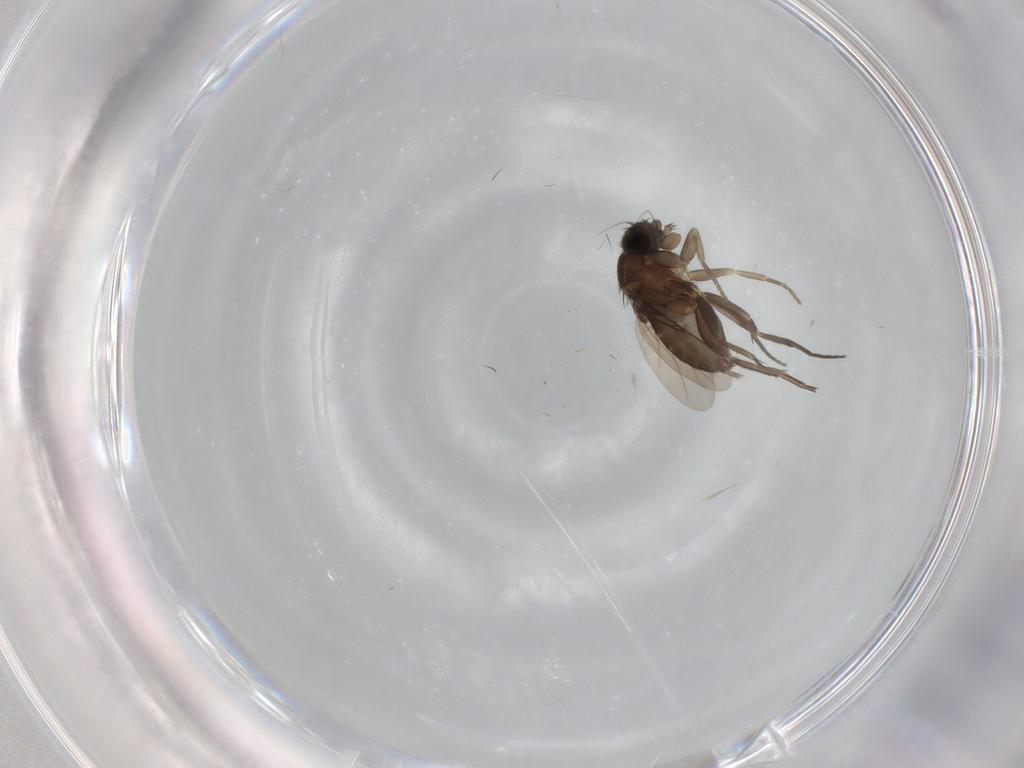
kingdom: Animalia
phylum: Arthropoda
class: Insecta
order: Diptera
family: Phoridae
